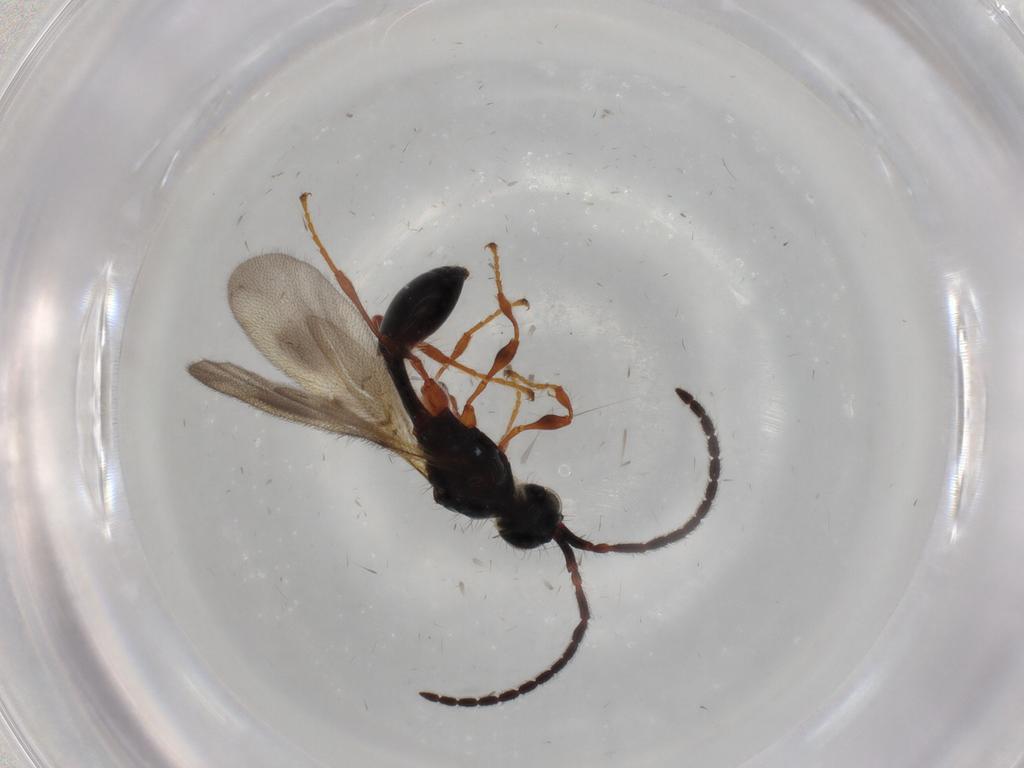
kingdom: Animalia
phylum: Arthropoda
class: Insecta
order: Hymenoptera
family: Diapriidae
